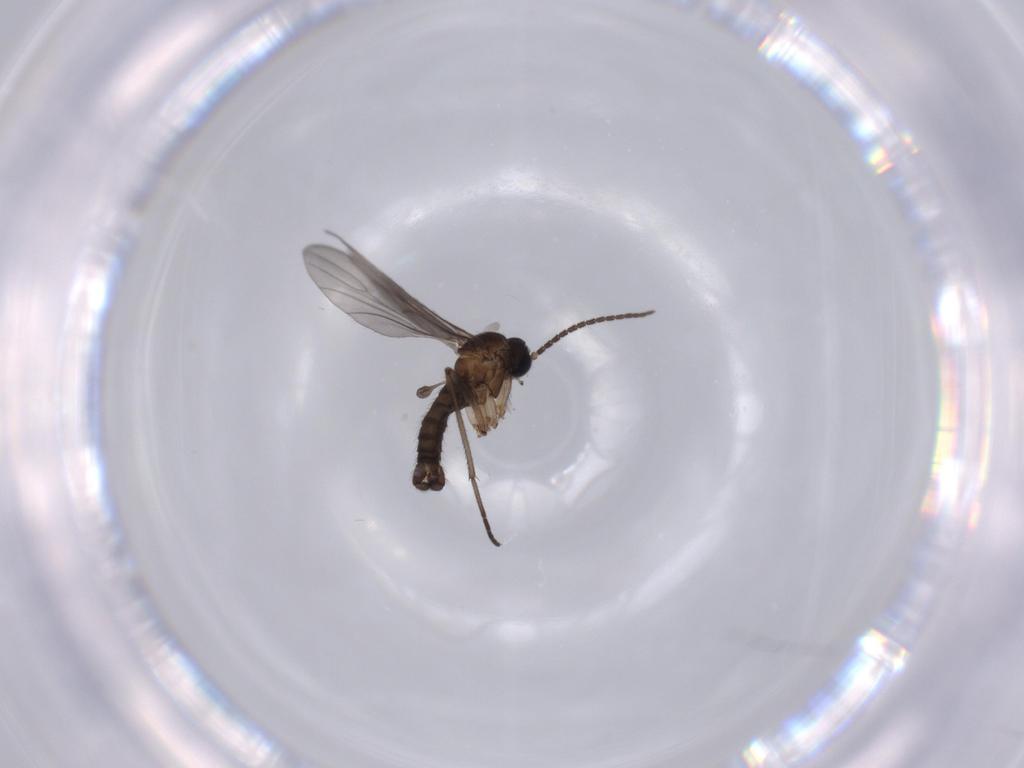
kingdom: Animalia
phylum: Arthropoda
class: Insecta
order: Diptera
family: Sciaridae
